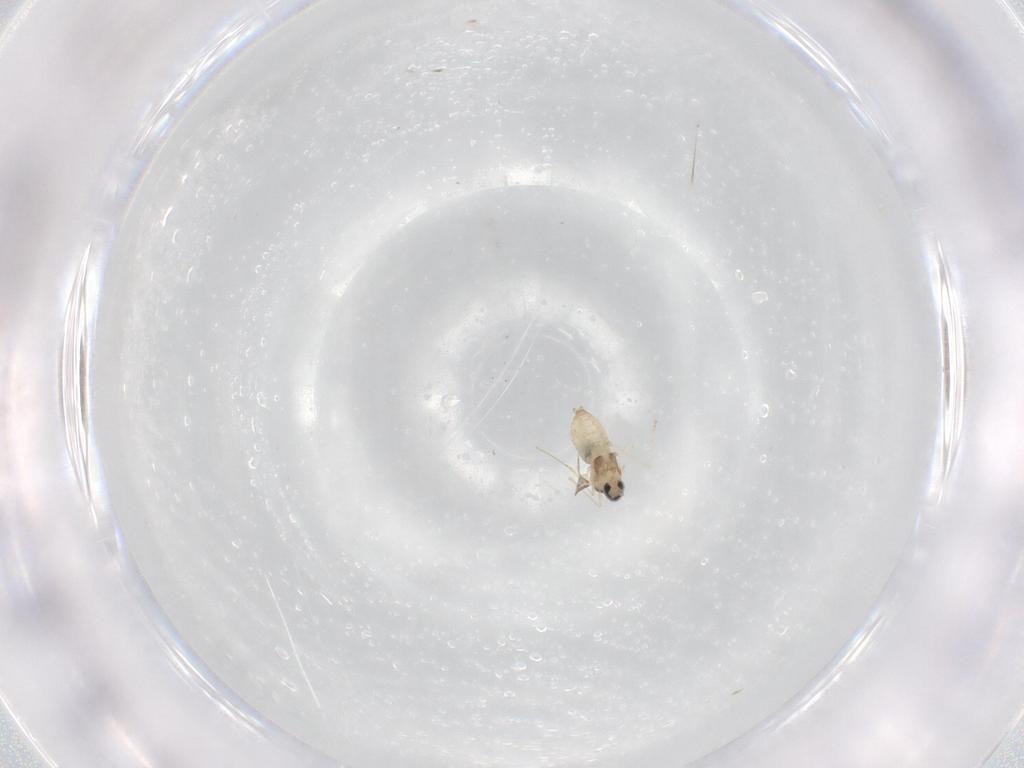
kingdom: Animalia
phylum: Arthropoda
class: Insecta
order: Diptera
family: Cecidomyiidae
